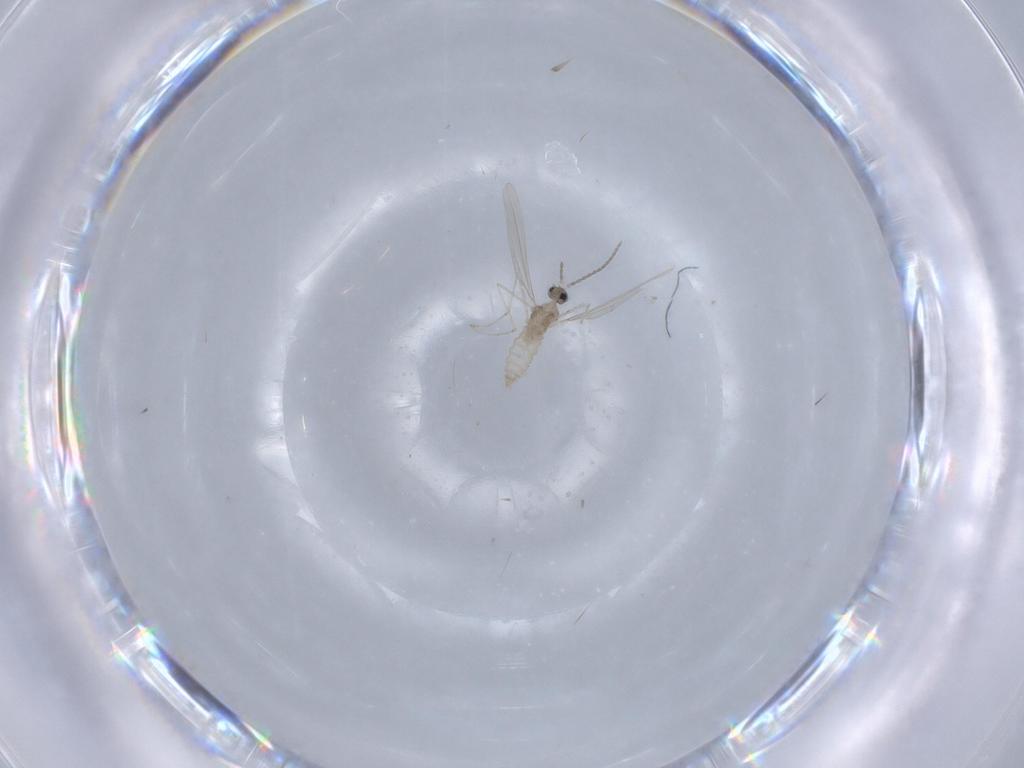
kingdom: Animalia
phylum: Arthropoda
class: Insecta
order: Diptera
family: Cecidomyiidae
